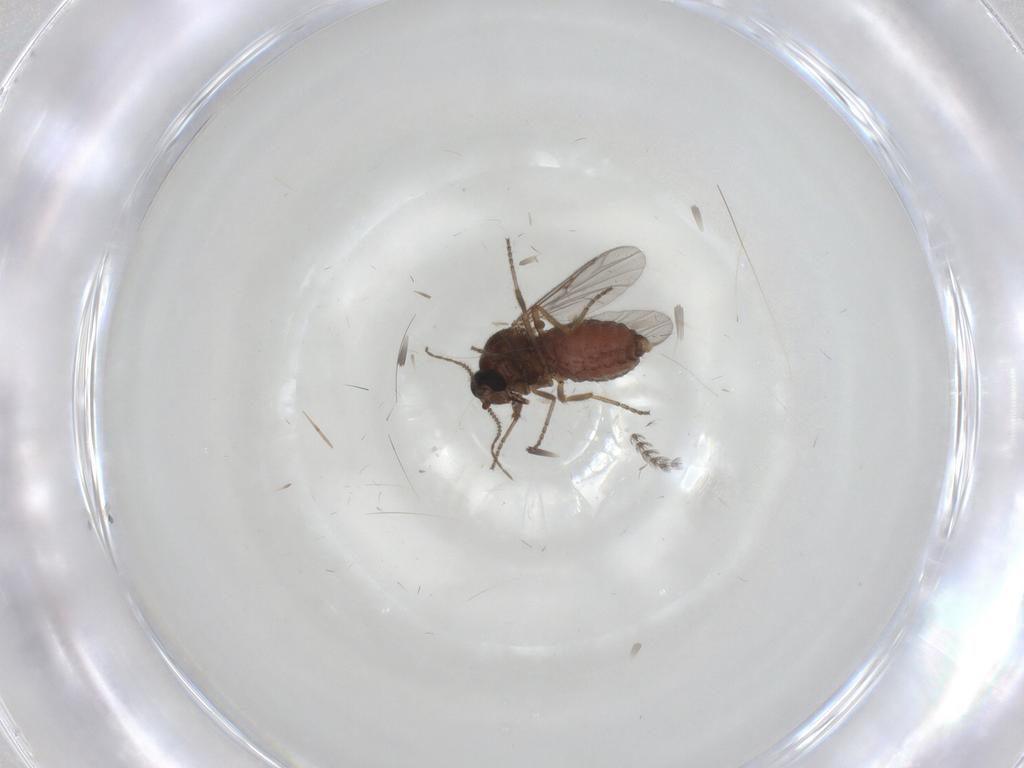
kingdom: Animalia
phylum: Arthropoda
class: Insecta
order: Diptera
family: Ceratopogonidae
